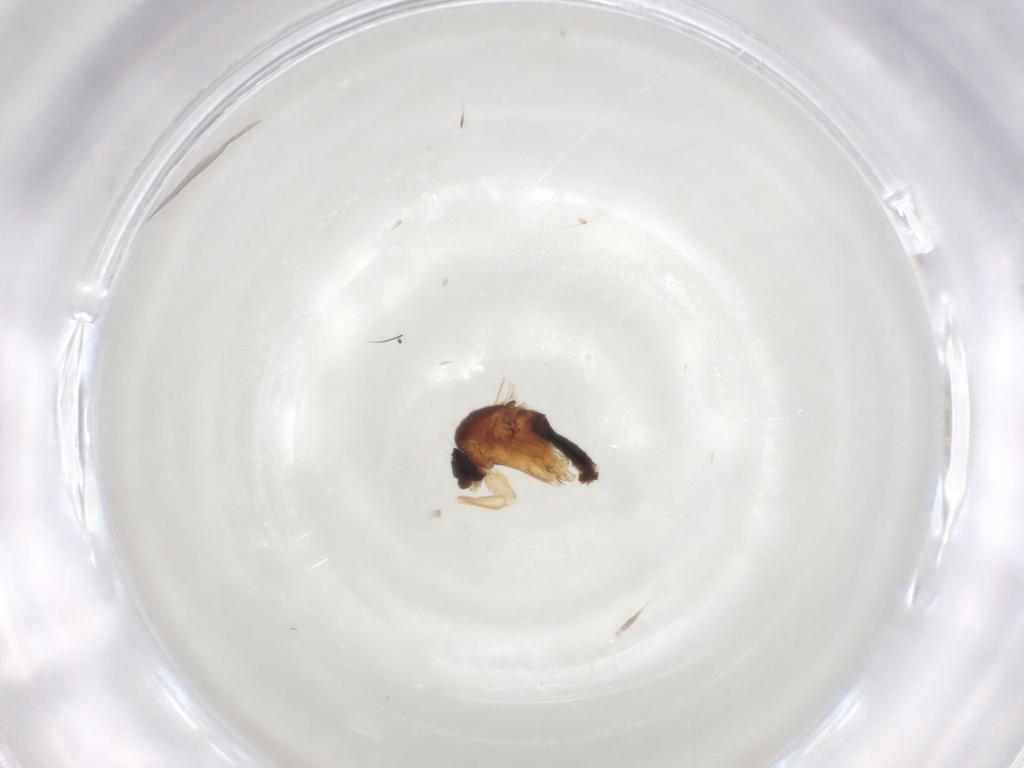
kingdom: Animalia
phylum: Arthropoda
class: Insecta
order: Diptera
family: Phoridae
